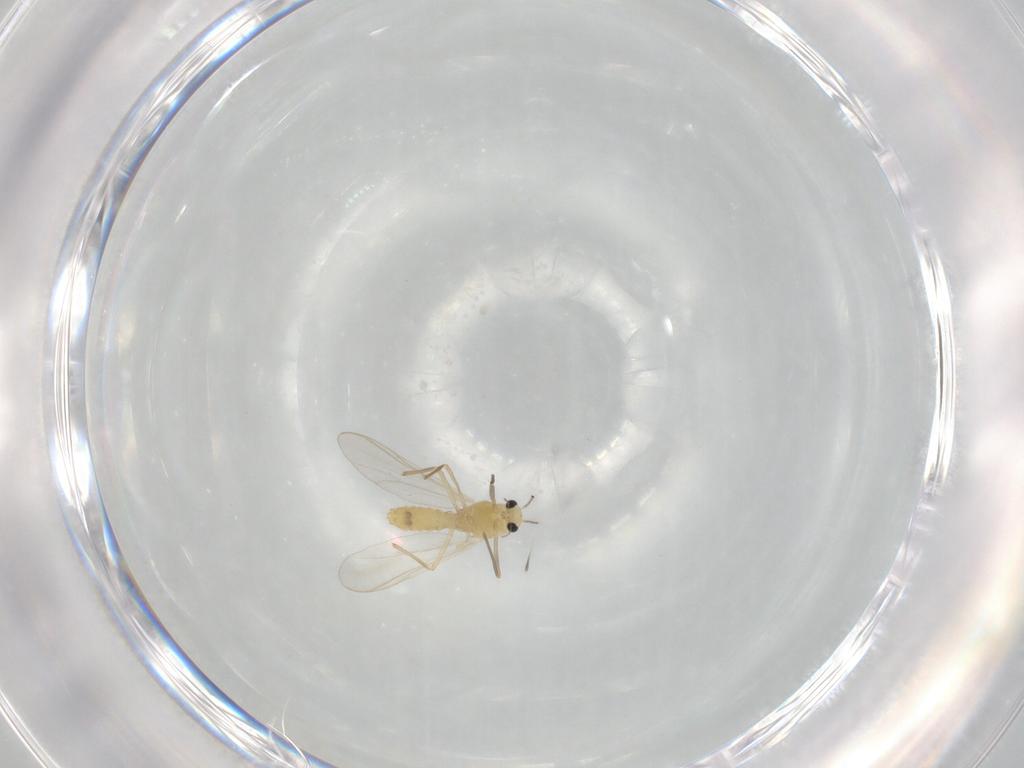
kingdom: Animalia
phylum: Arthropoda
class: Insecta
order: Diptera
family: Chironomidae
